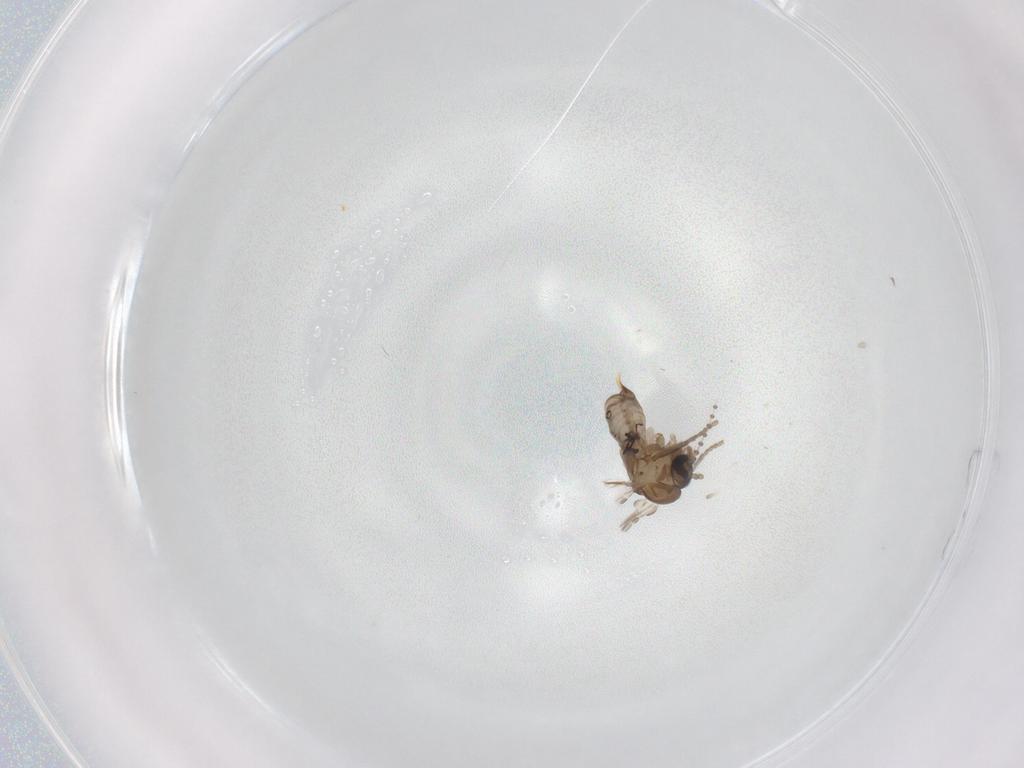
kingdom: Animalia
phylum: Arthropoda
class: Insecta
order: Diptera
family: Psychodidae
